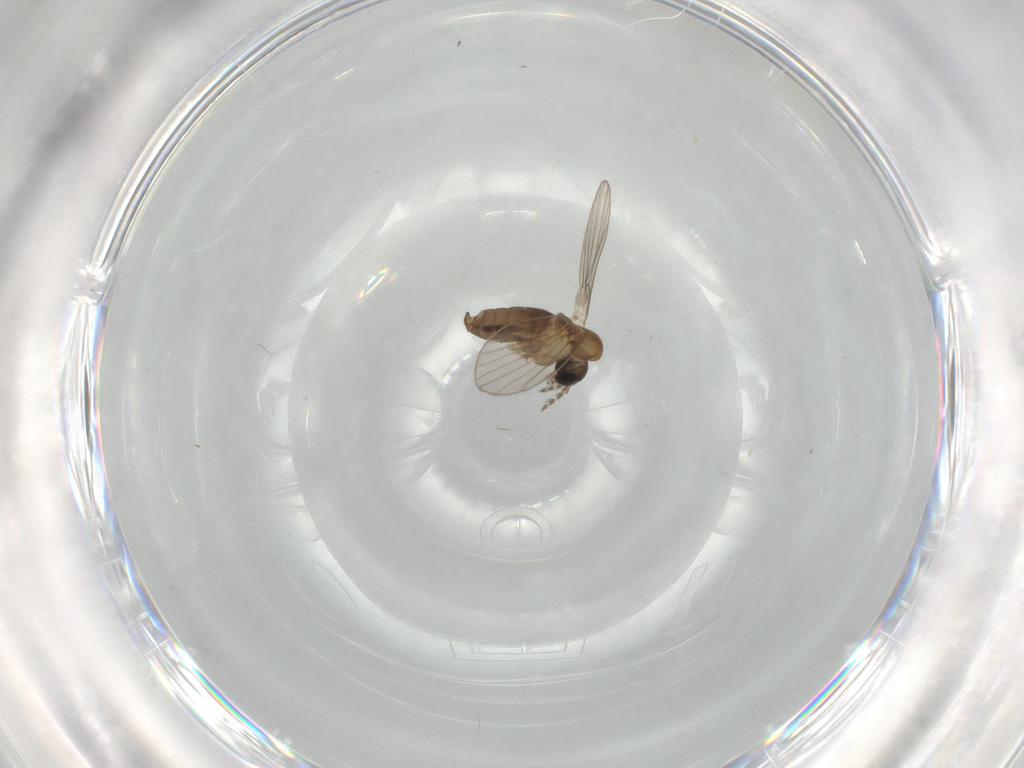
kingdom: Animalia
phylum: Arthropoda
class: Insecta
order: Diptera
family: Psychodidae
